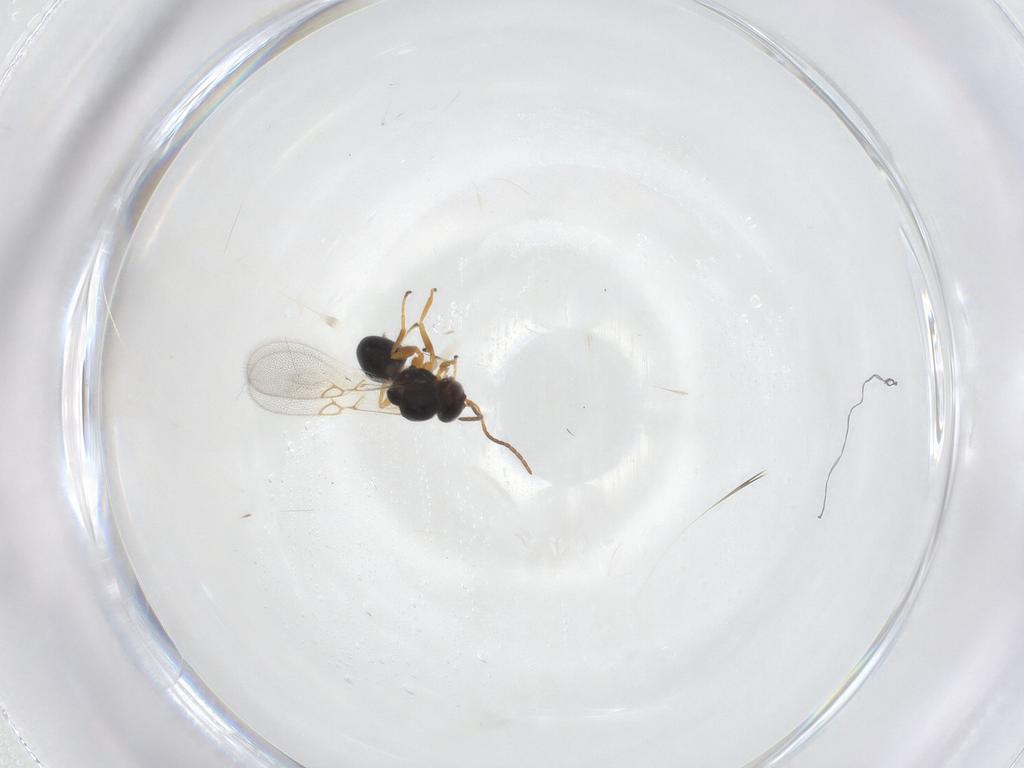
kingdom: Animalia
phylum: Arthropoda
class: Insecta
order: Hymenoptera
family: Figitidae
